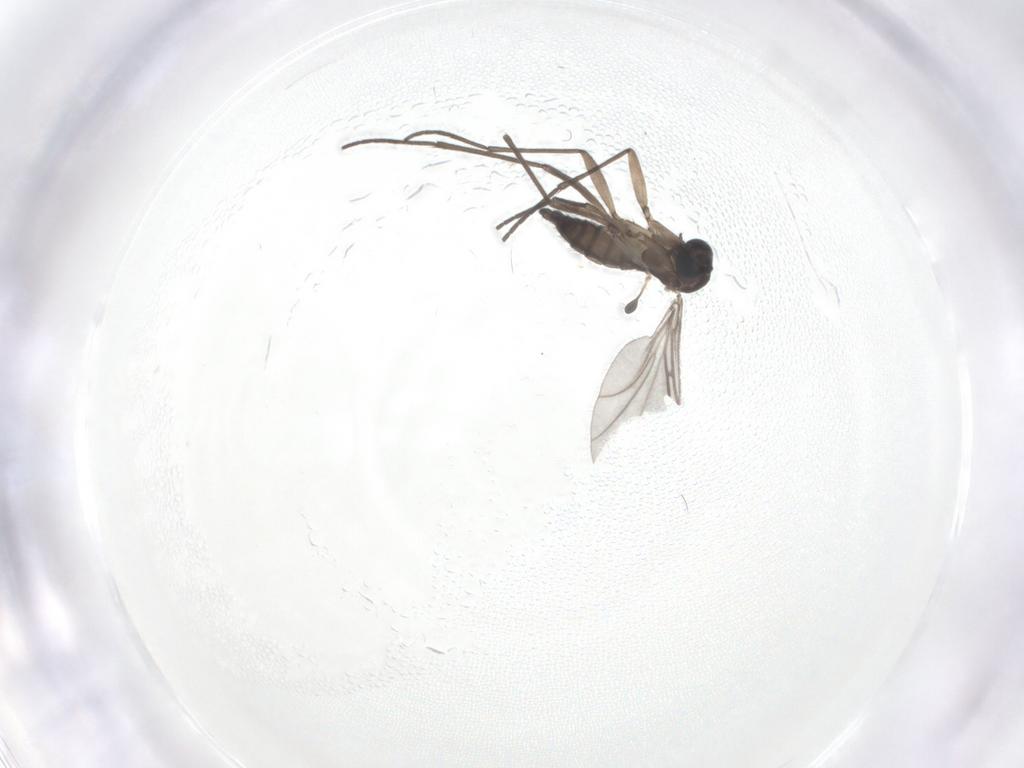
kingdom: Animalia
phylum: Arthropoda
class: Insecta
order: Diptera
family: Sciaridae
